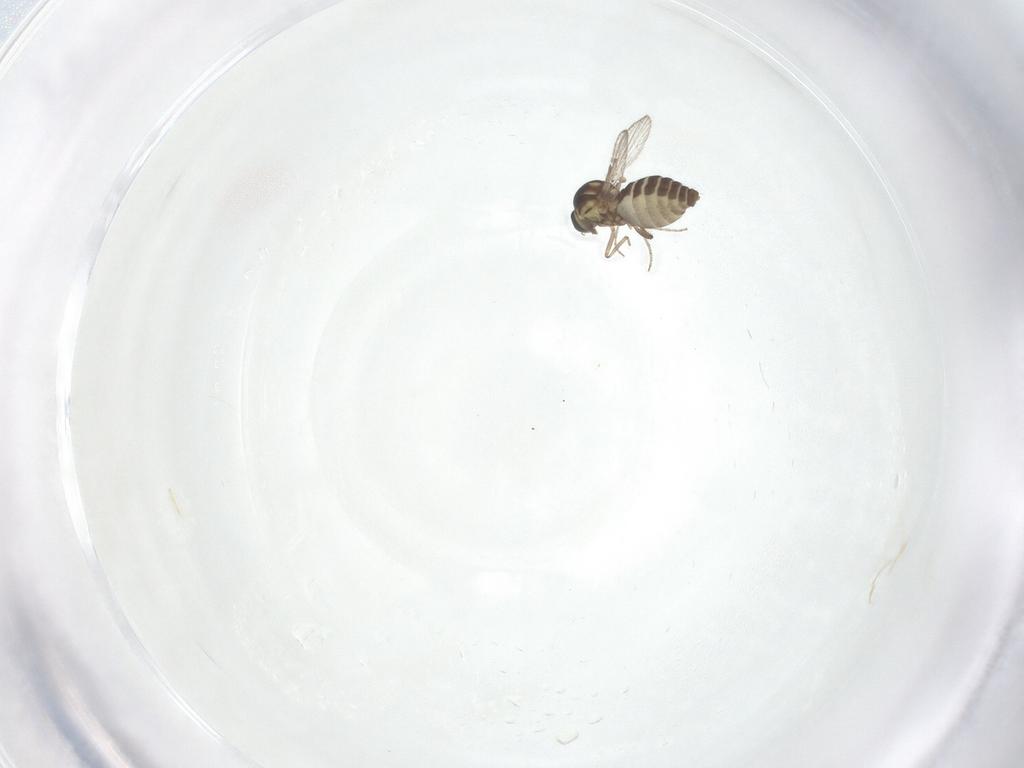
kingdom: Animalia
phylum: Arthropoda
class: Insecta
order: Diptera
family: Ceratopogonidae
